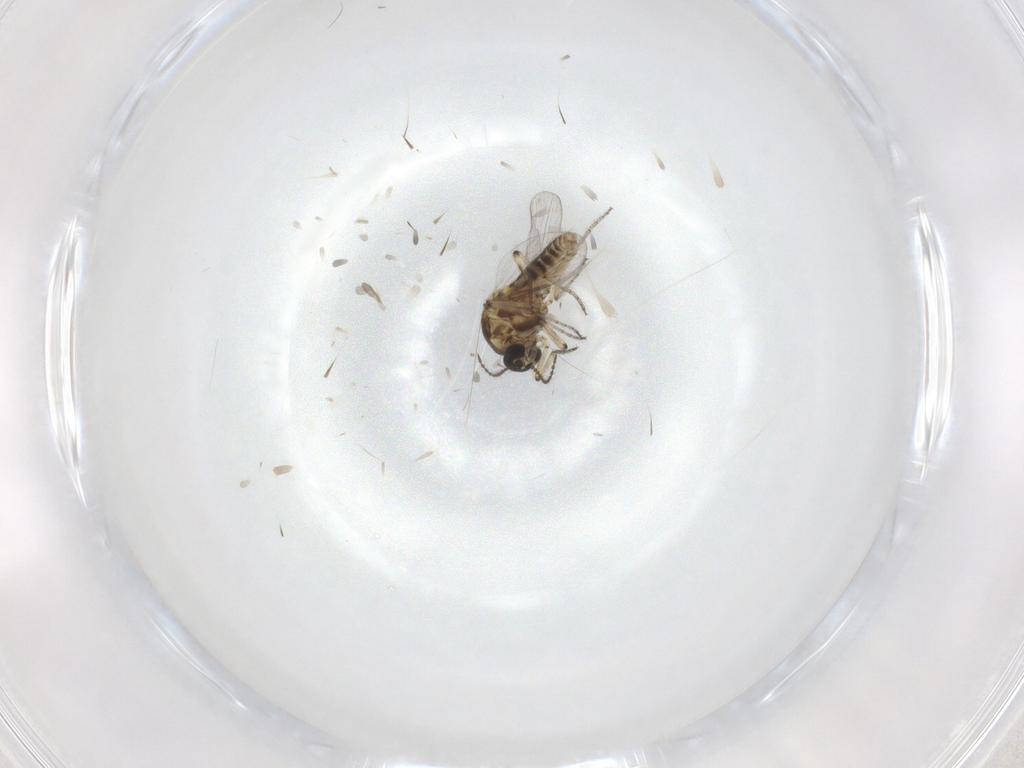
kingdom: Animalia
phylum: Arthropoda
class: Insecta
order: Diptera
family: Cecidomyiidae
